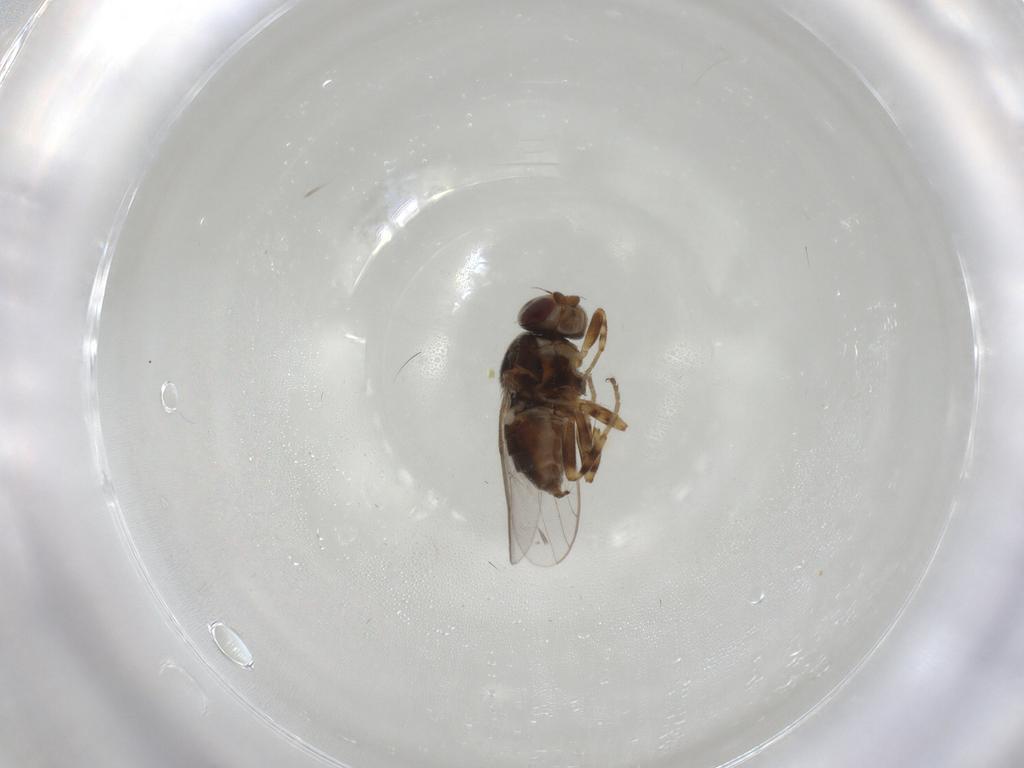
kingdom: Animalia
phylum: Arthropoda
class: Insecta
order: Diptera
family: Chloropidae
